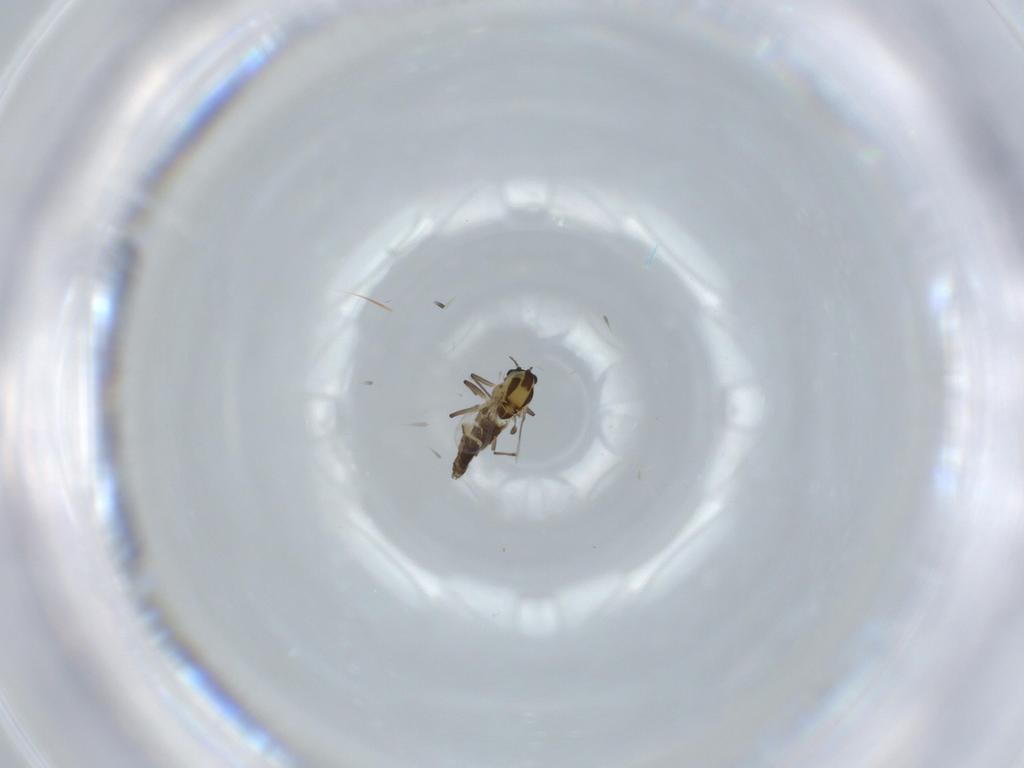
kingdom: Animalia
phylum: Arthropoda
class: Insecta
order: Diptera
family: Chironomidae
